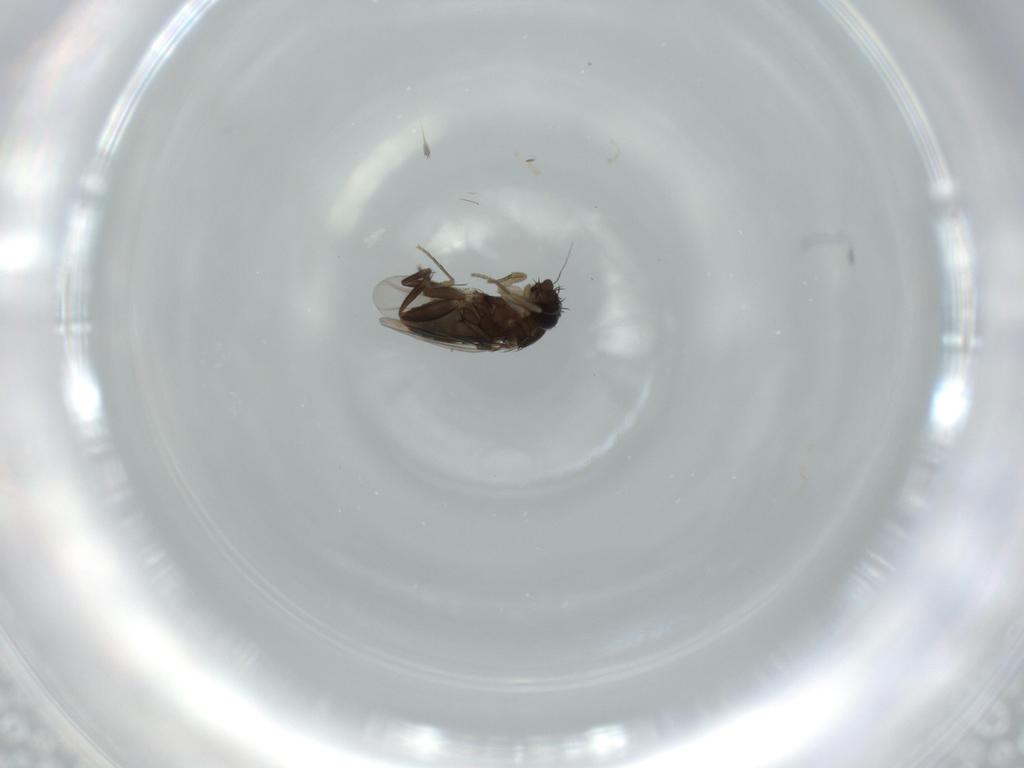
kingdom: Animalia
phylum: Arthropoda
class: Insecta
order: Diptera
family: Phoridae
